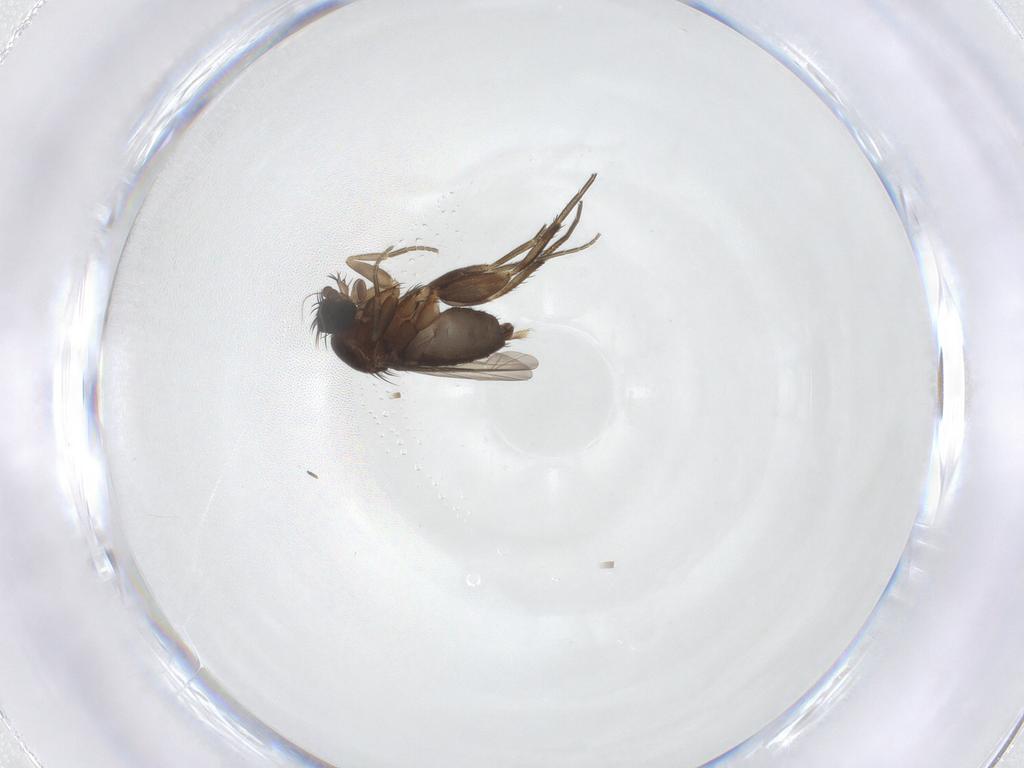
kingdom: Animalia
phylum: Arthropoda
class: Insecta
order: Diptera
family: Phoridae
